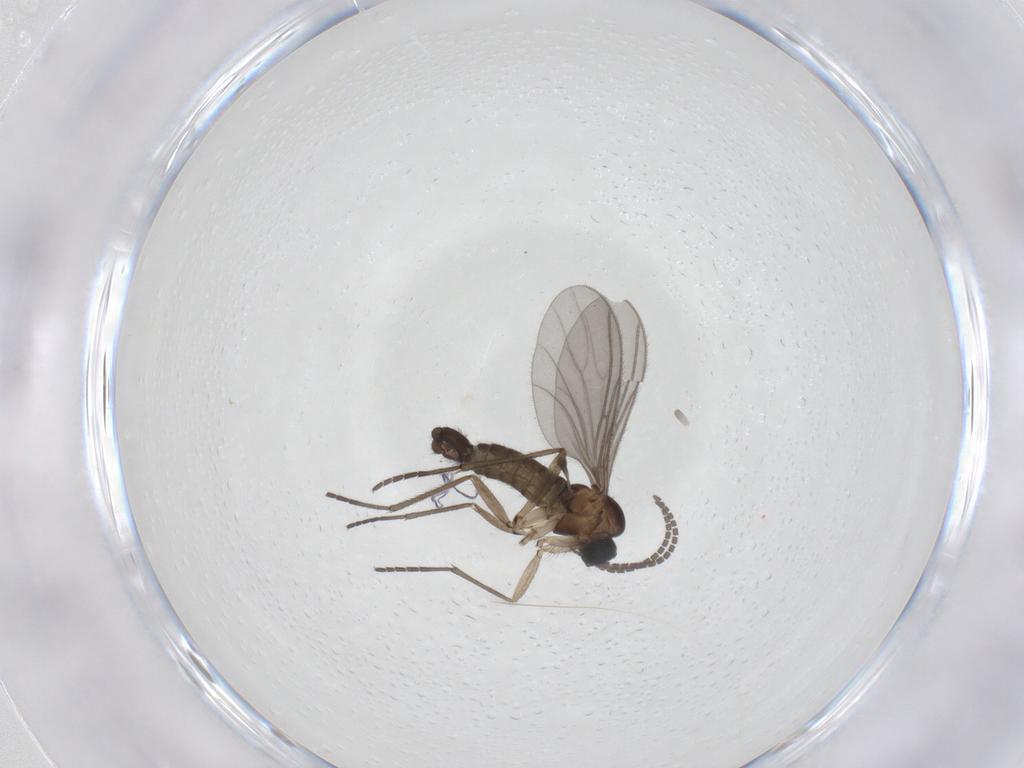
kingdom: Animalia
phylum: Arthropoda
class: Insecta
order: Diptera
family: Sciaridae
